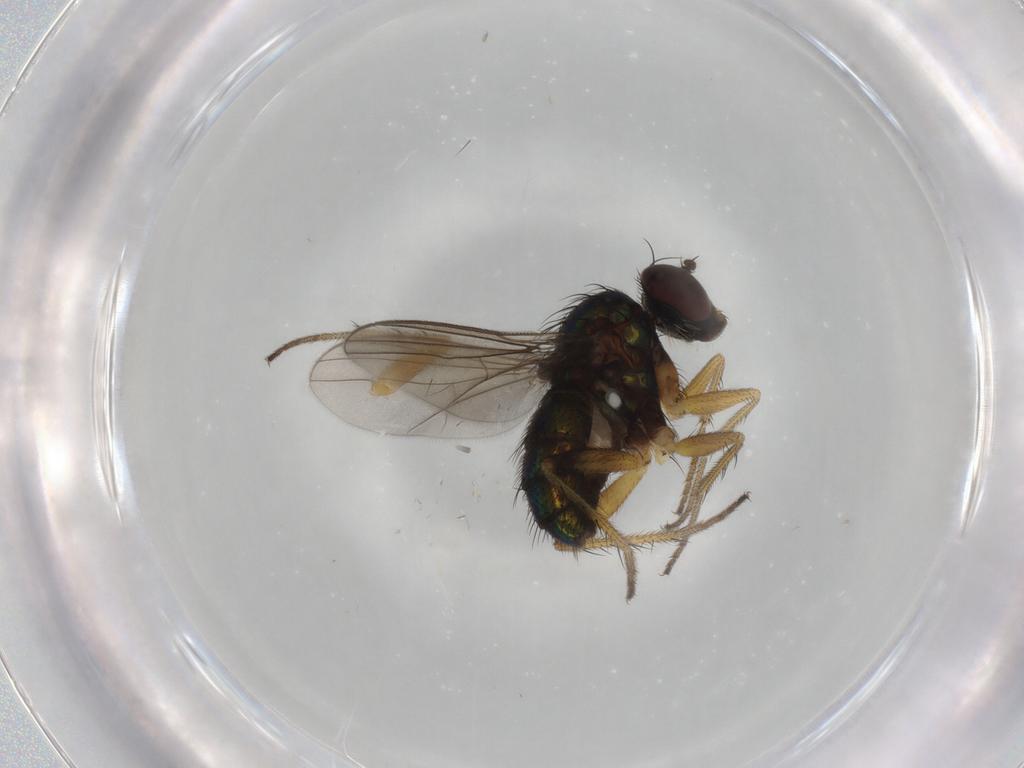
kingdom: Animalia
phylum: Arthropoda
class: Insecta
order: Diptera
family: Dolichopodidae
